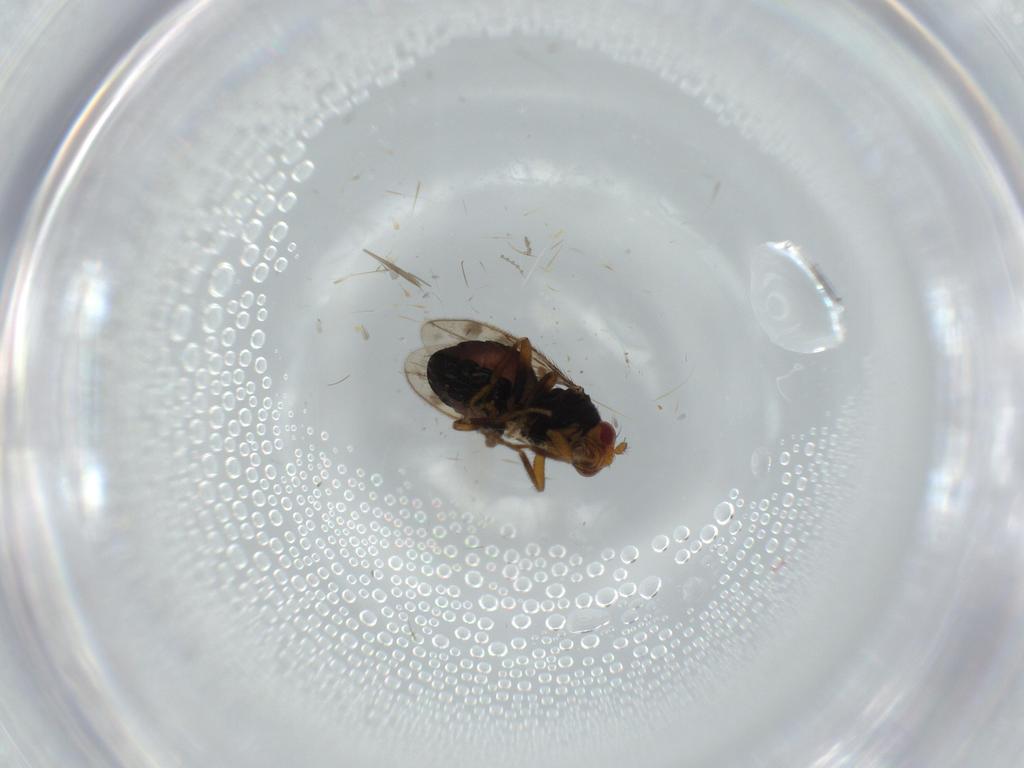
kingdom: Animalia
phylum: Arthropoda
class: Insecta
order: Diptera
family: Sphaeroceridae
